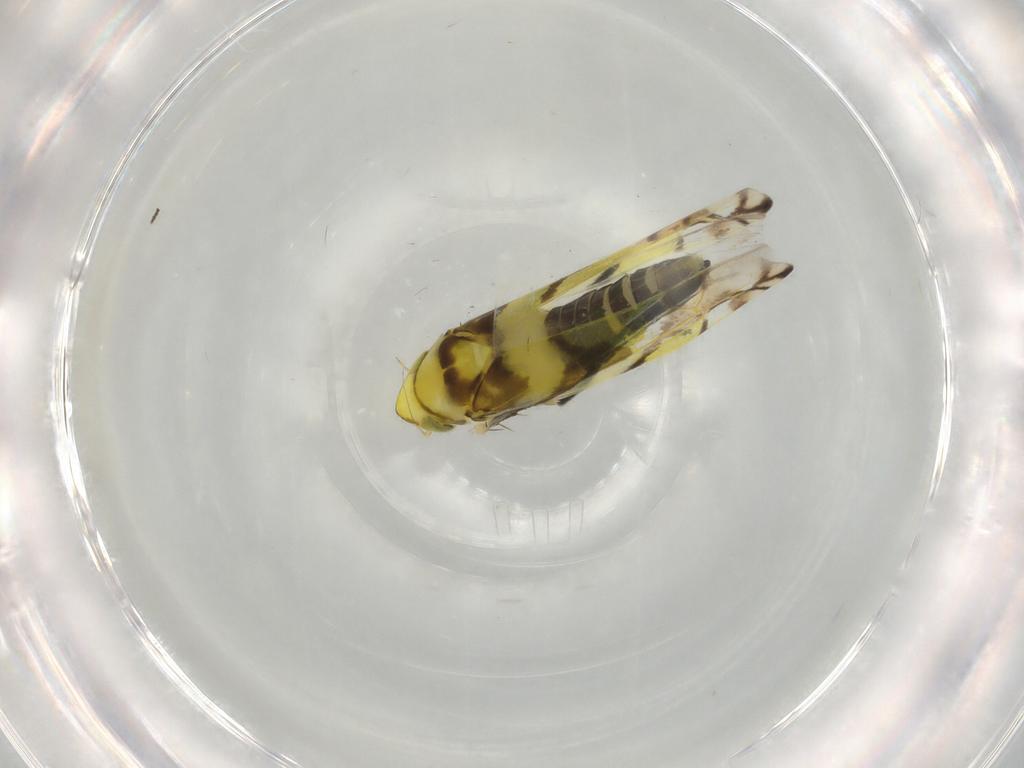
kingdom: Animalia
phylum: Arthropoda
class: Insecta
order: Hemiptera
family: Cicadellidae
